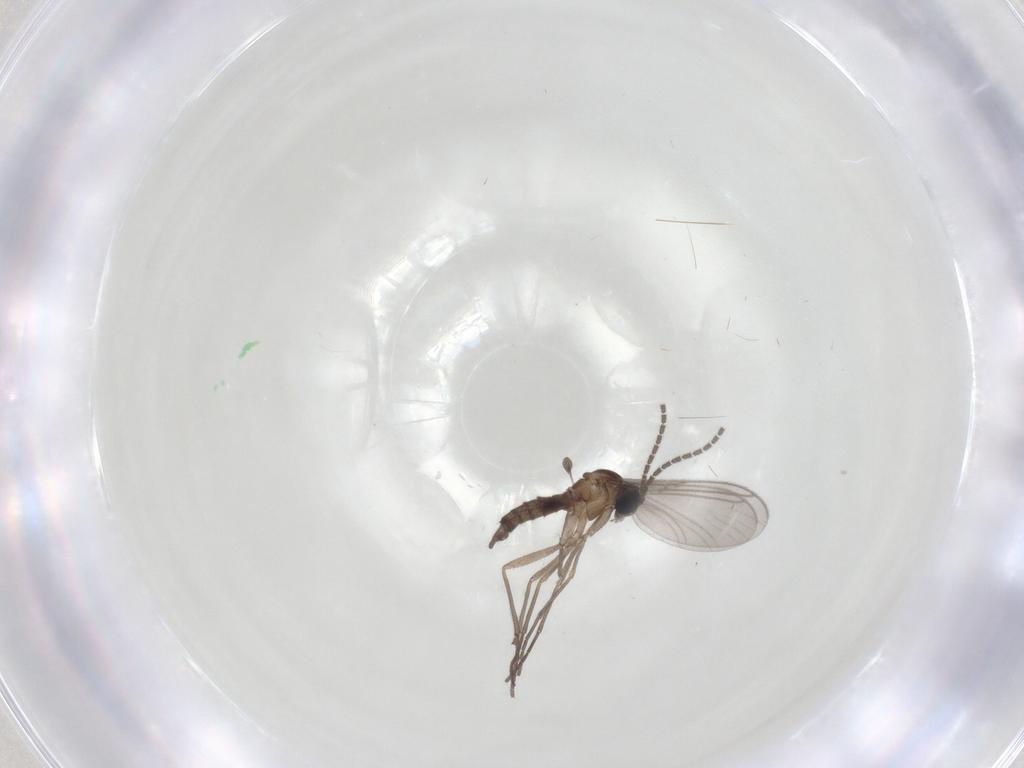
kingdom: Animalia
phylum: Arthropoda
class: Insecta
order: Diptera
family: Sciaridae
